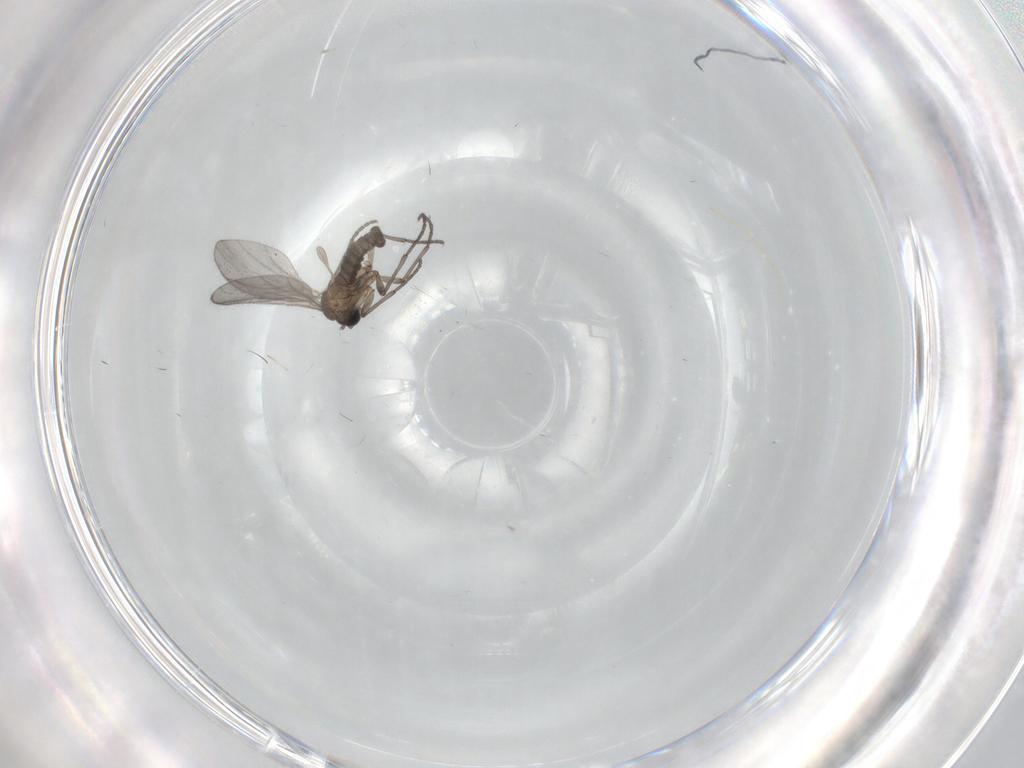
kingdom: Animalia
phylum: Arthropoda
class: Insecta
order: Diptera
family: Sciaridae
